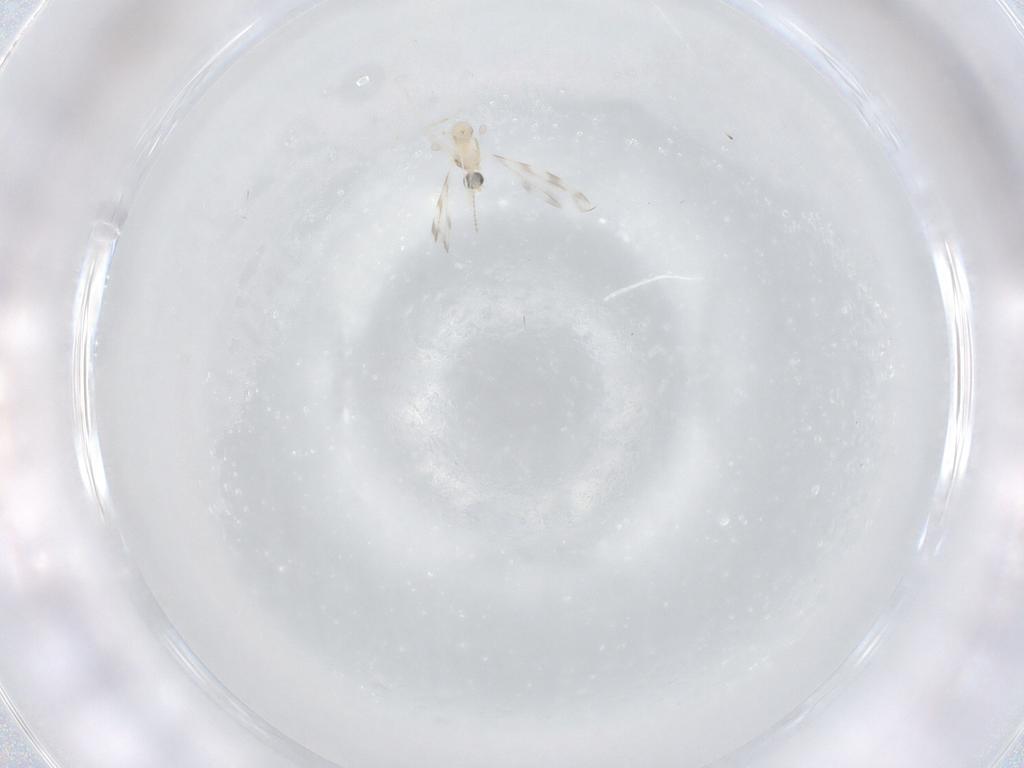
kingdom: Animalia
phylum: Arthropoda
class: Insecta
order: Diptera
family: Cecidomyiidae
